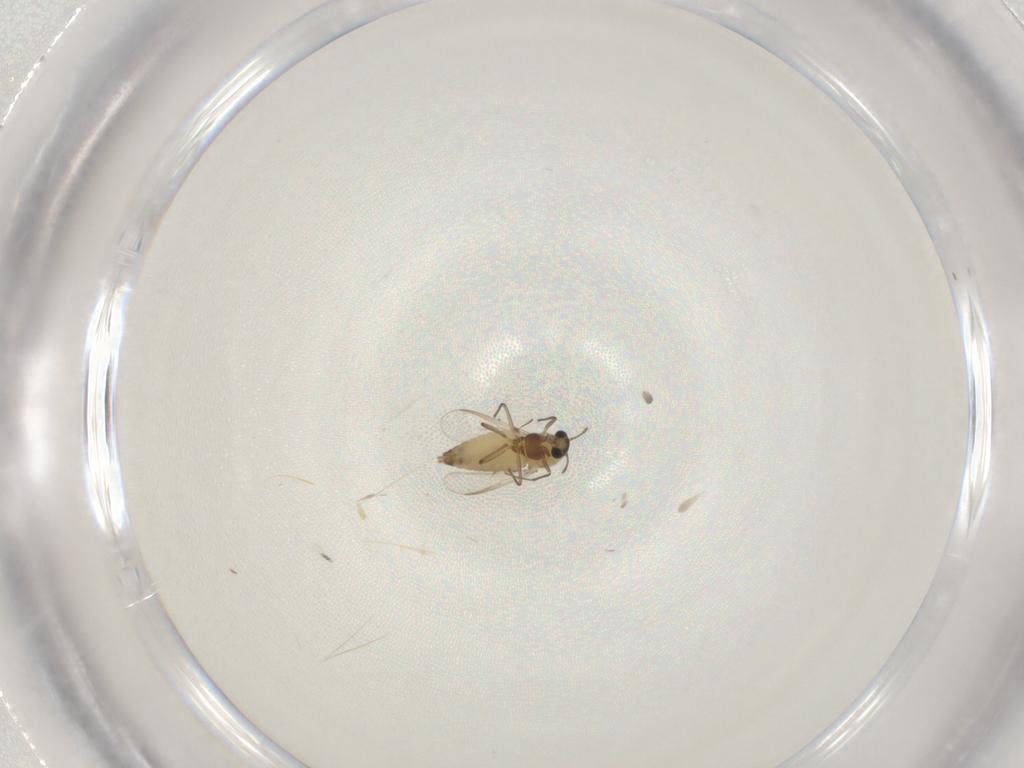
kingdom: Animalia
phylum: Arthropoda
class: Insecta
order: Diptera
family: Chironomidae
